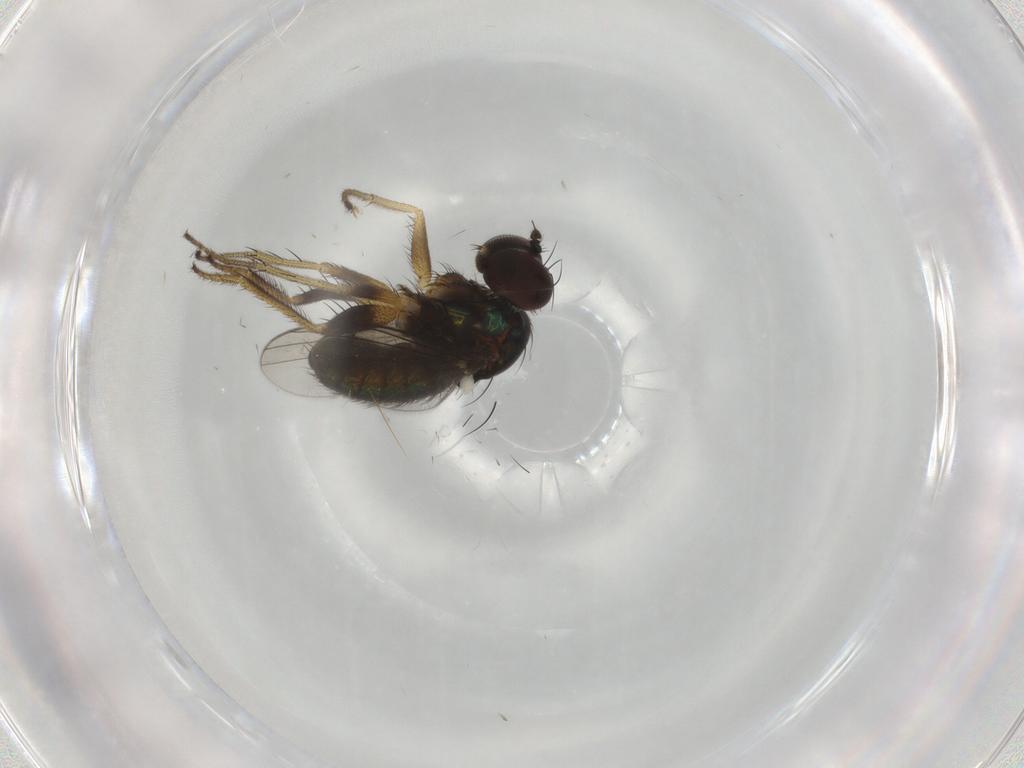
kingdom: Animalia
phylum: Arthropoda
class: Insecta
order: Diptera
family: Dolichopodidae
